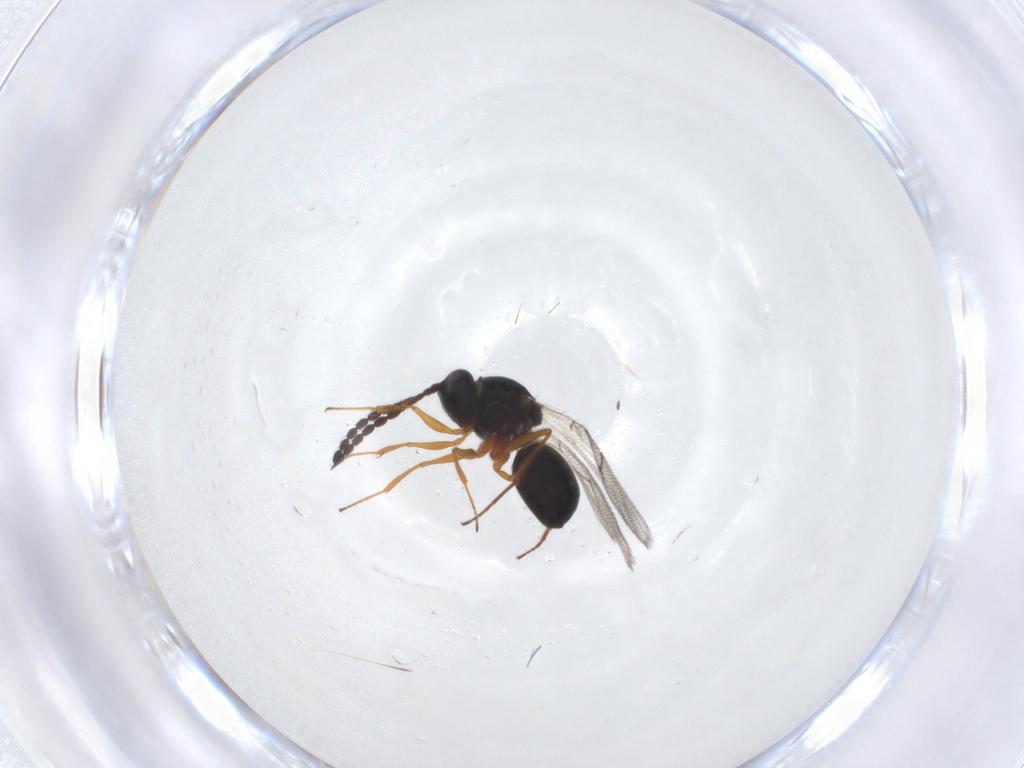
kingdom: Animalia
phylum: Arthropoda
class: Insecta
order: Hymenoptera
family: Figitidae
